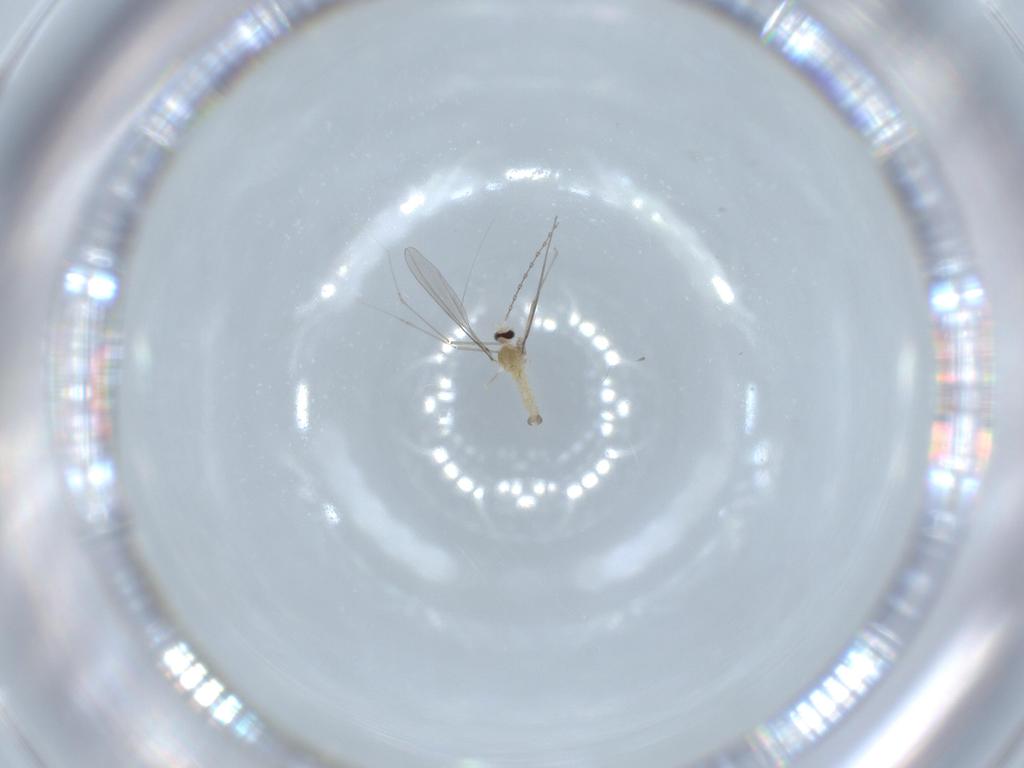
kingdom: Animalia
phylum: Arthropoda
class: Insecta
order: Diptera
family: Cecidomyiidae
